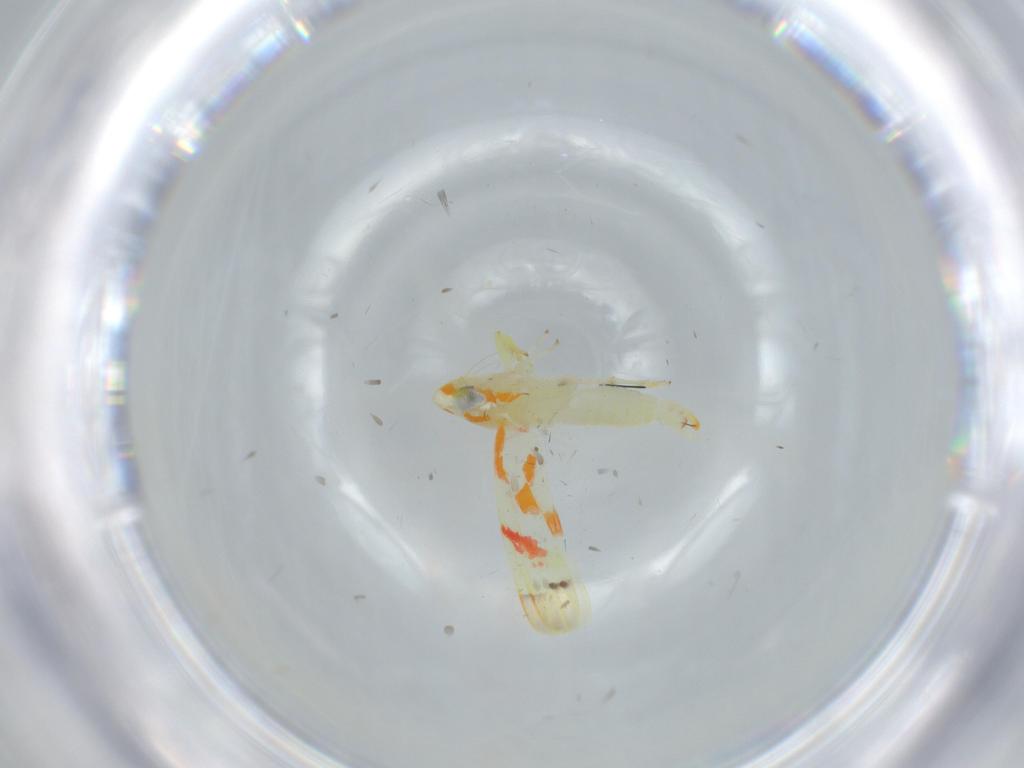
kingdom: Animalia
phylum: Arthropoda
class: Insecta
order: Hemiptera
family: Cicadellidae
